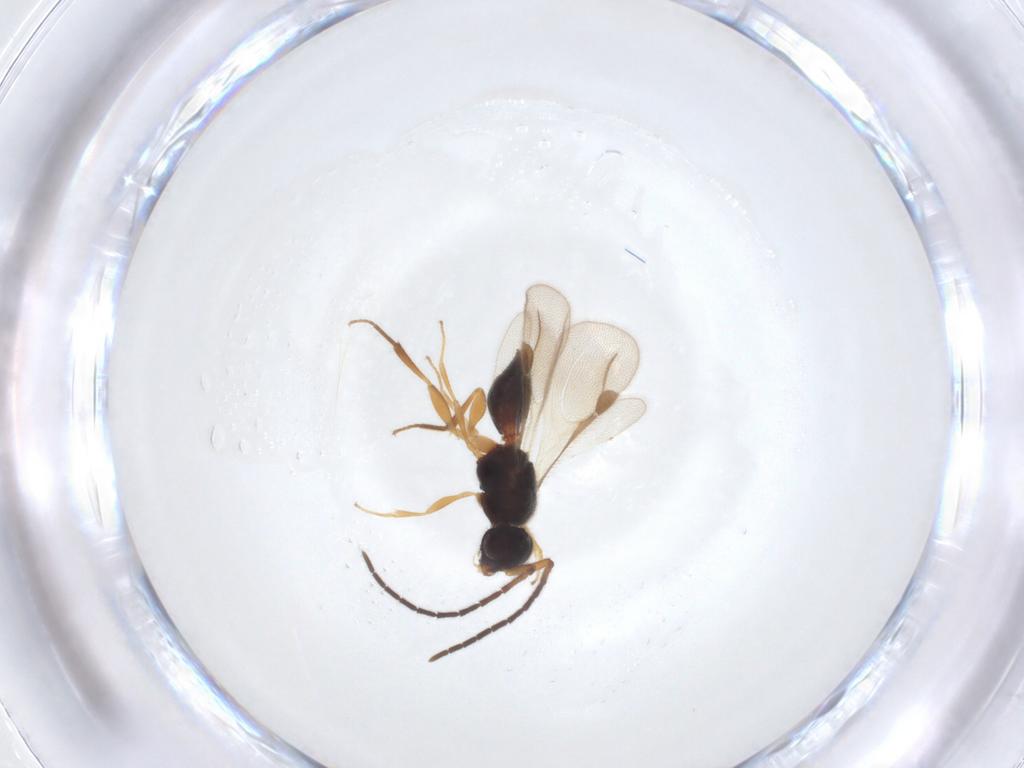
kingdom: Animalia
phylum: Arthropoda
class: Insecta
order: Hymenoptera
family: Megaspilidae
